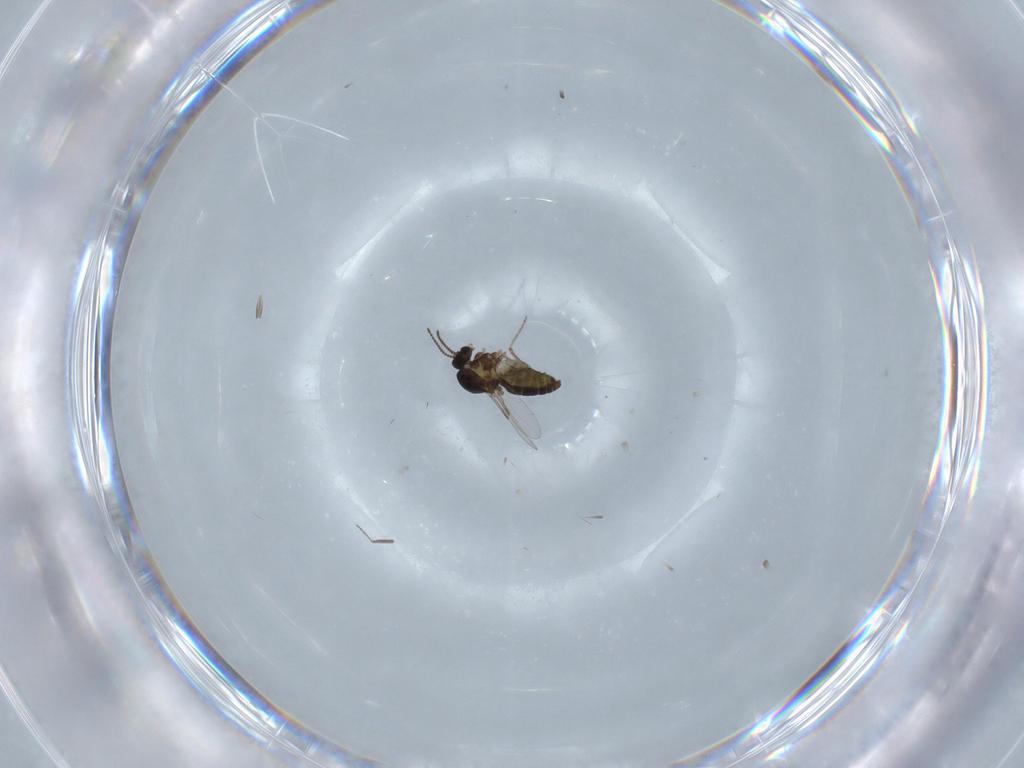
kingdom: Animalia
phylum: Arthropoda
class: Insecta
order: Diptera
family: Ceratopogonidae
